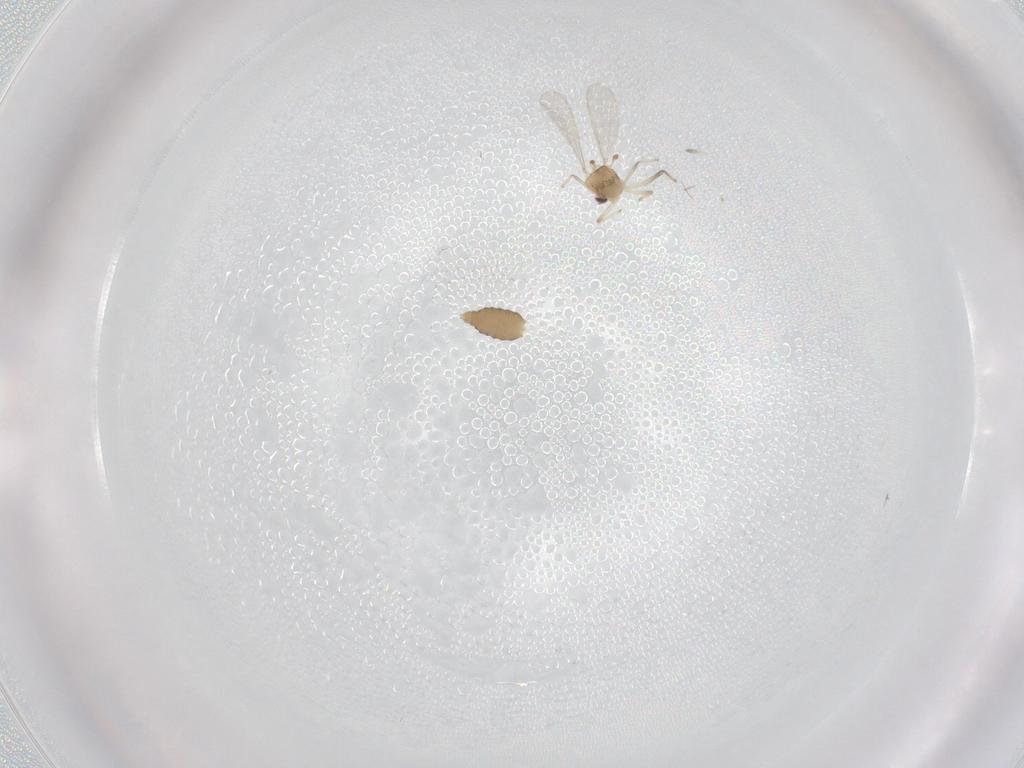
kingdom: Animalia
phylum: Arthropoda
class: Insecta
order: Diptera
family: Chironomidae
